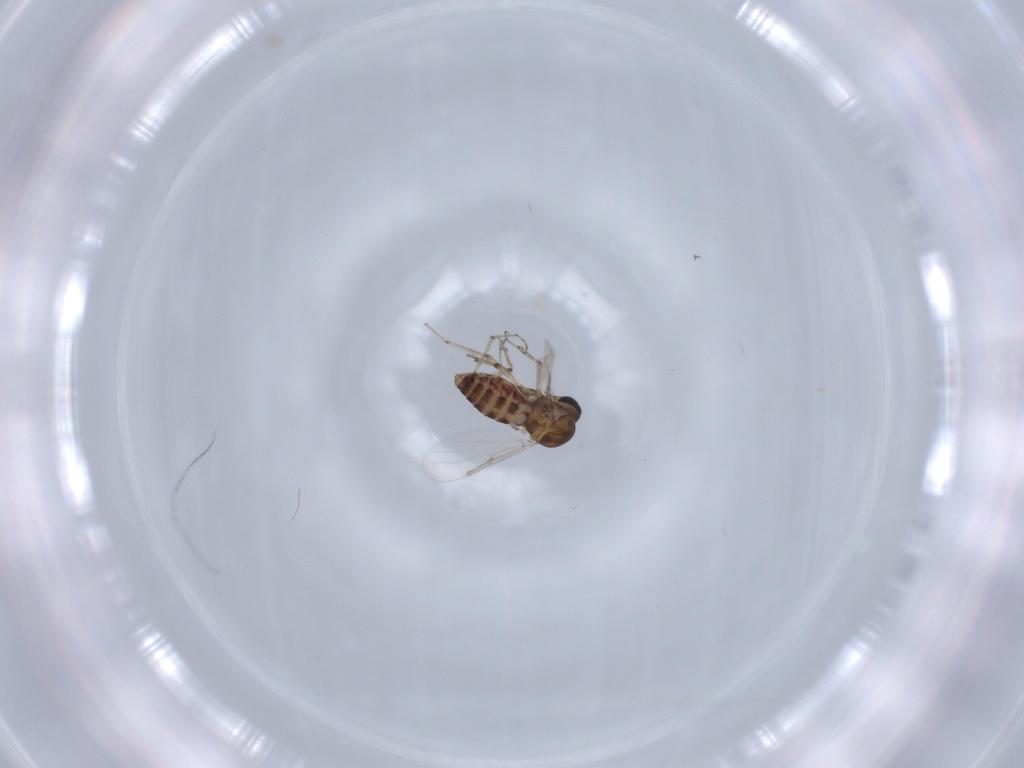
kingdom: Animalia
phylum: Arthropoda
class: Insecta
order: Diptera
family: Ceratopogonidae
